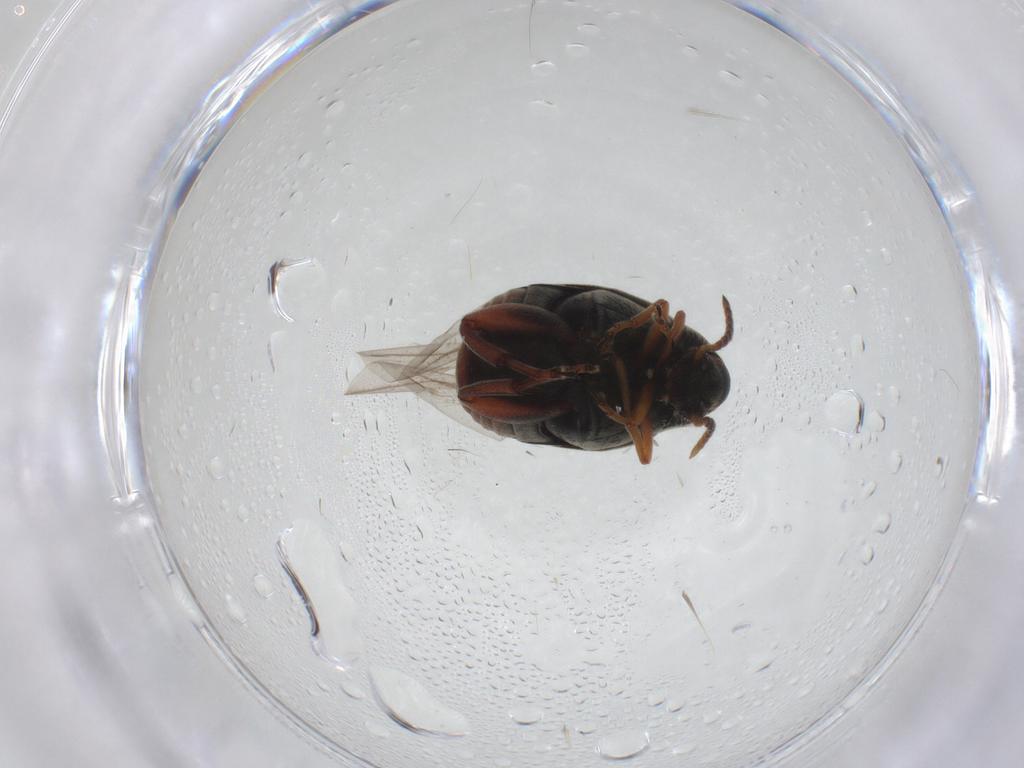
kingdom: Animalia
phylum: Arthropoda
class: Insecta
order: Coleoptera
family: Chrysomelidae
